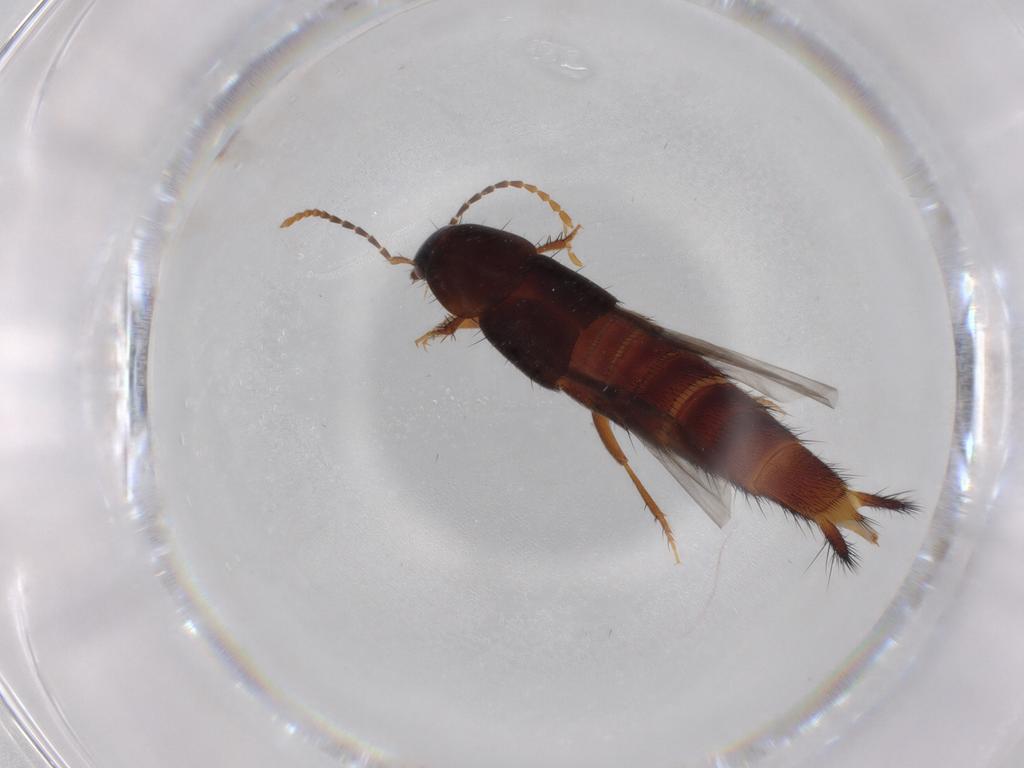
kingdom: Animalia
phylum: Arthropoda
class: Insecta
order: Coleoptera
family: Staphylinidae
